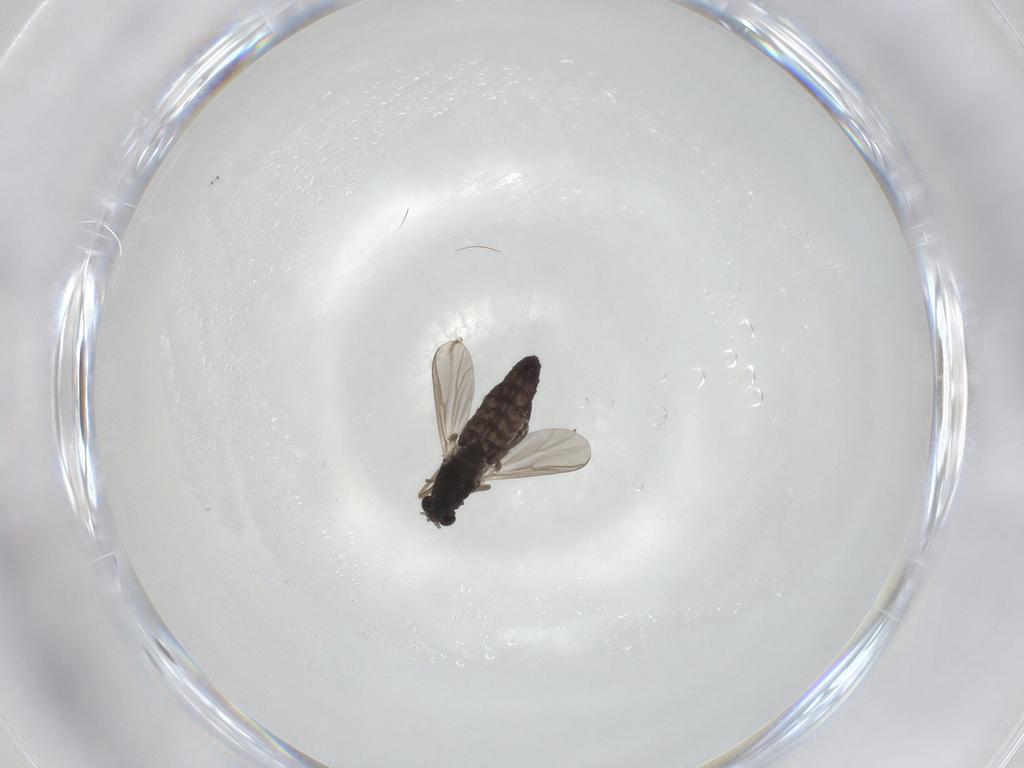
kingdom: Animalia
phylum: Arthropoda
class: Insecta
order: Diptera
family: Chironomidae
